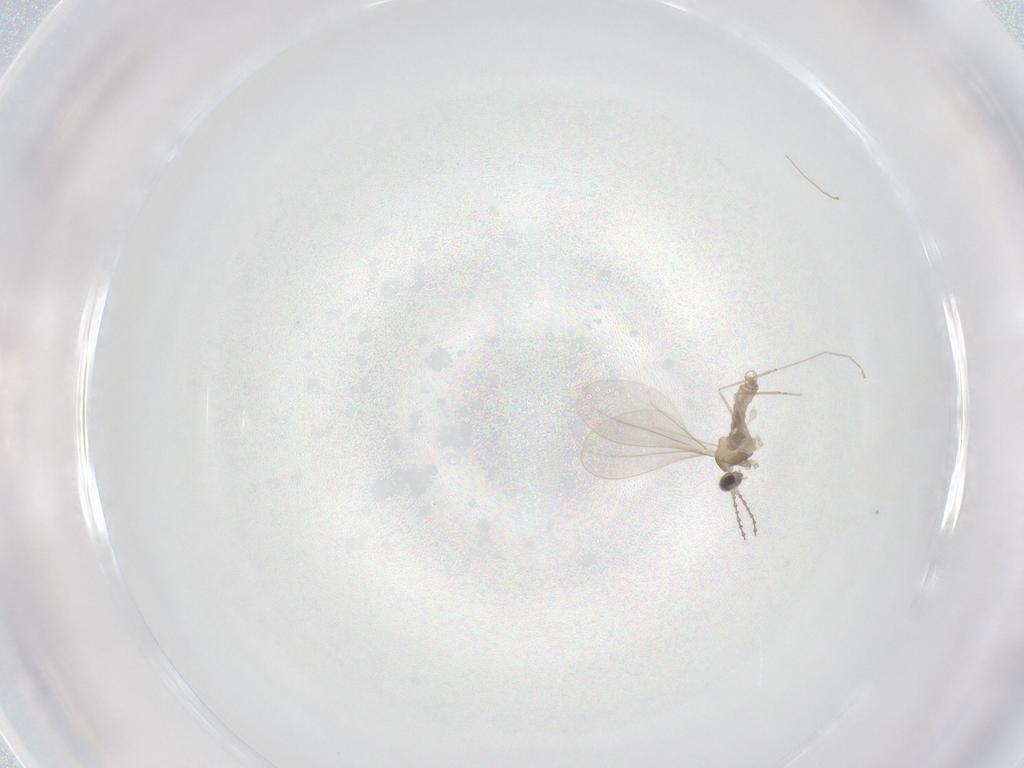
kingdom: Animalia
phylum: Arthropoda
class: Insecta
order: Diptera
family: Cecidomyiidae
